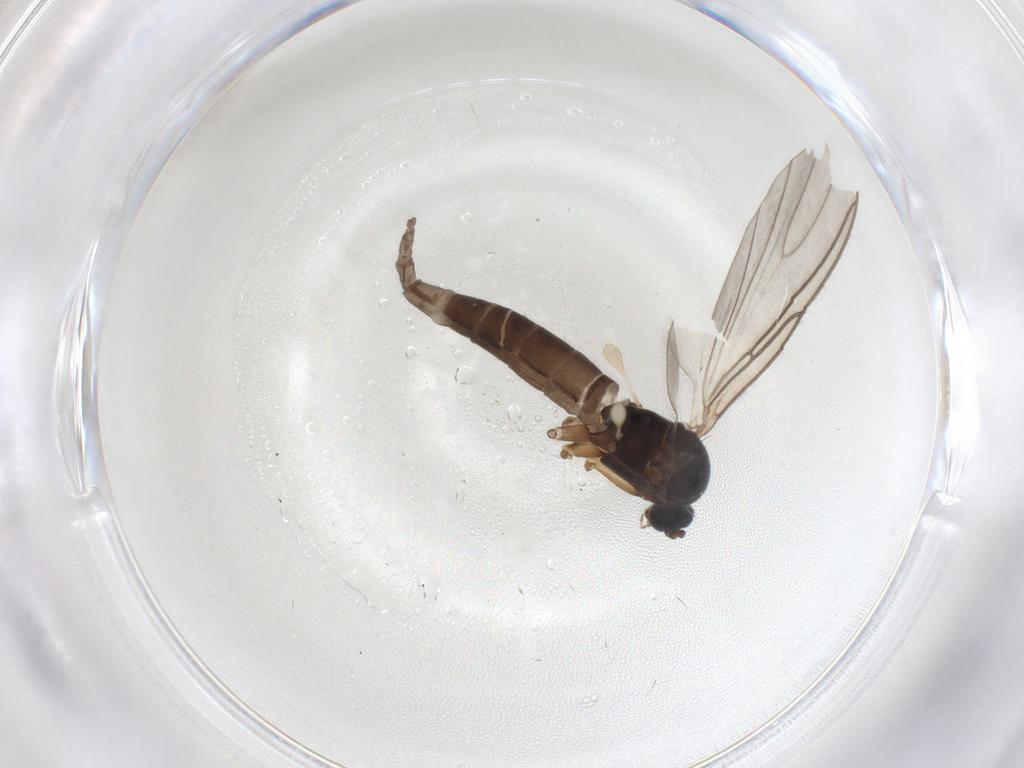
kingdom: Animalia
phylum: Arthropoda
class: Insecta
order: Diptera
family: Sciaridae
